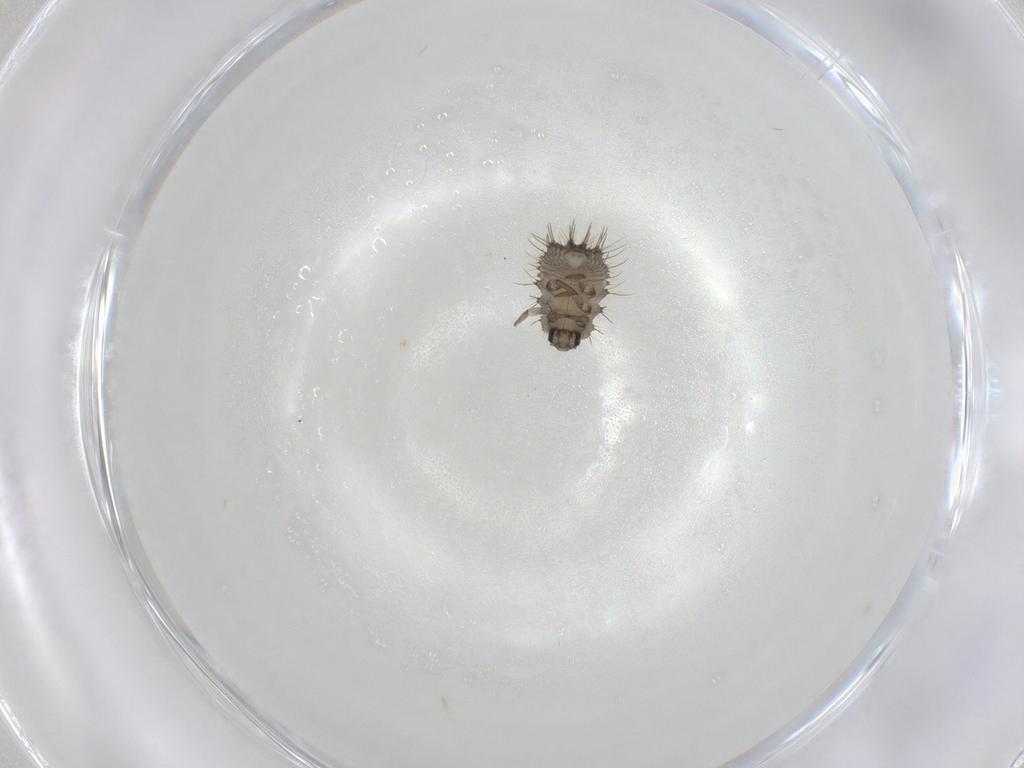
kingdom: Animalia
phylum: Arthropoda
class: Insecta
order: Coleoptera
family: Coccinellidae
